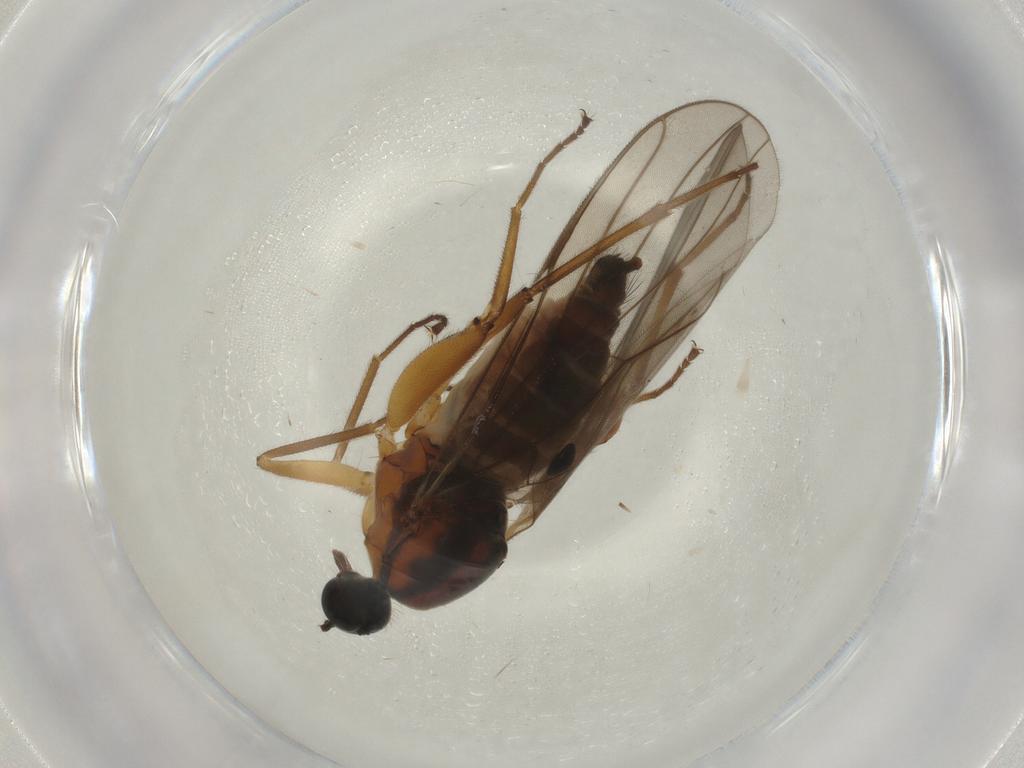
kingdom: Animalia
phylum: Arthropoda
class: Insecta
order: Diptera
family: Hybotidae
